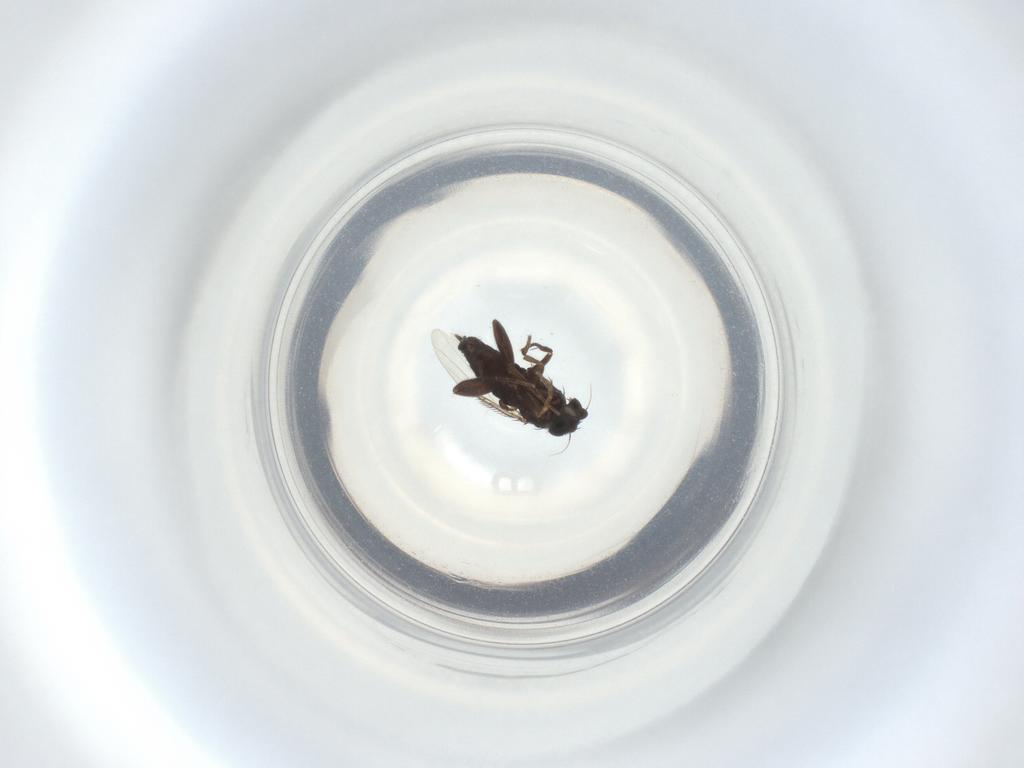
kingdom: Animalia
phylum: Arthropoda
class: Insecta
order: Diptera
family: Phoridae
